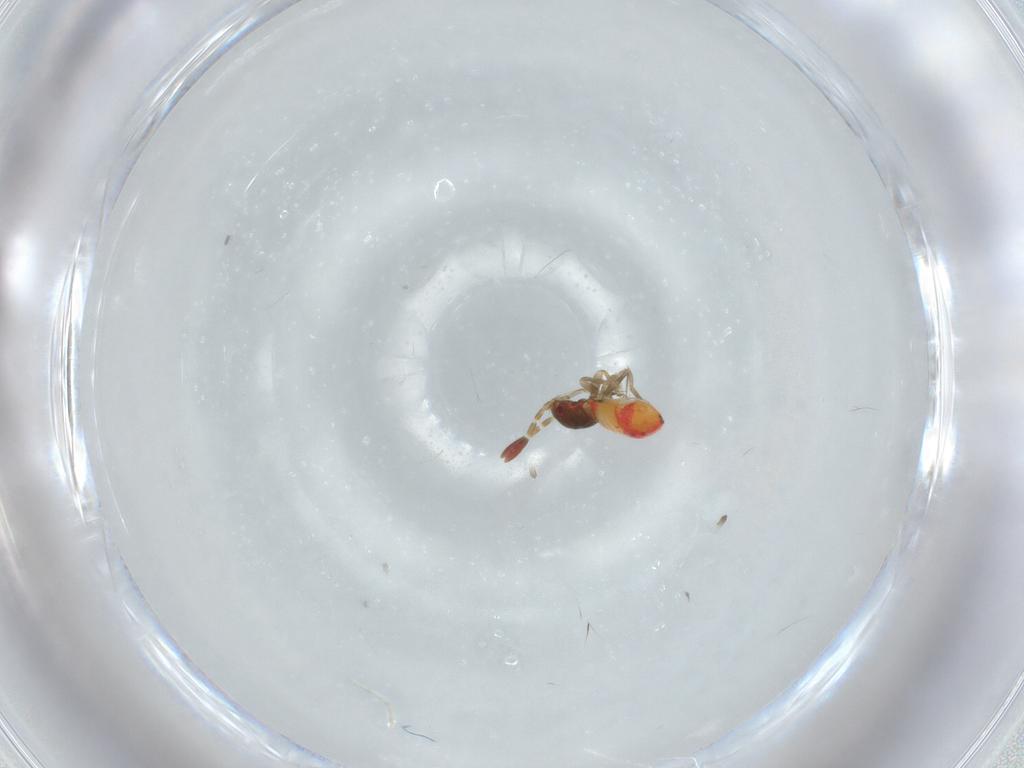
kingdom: Animalia
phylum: Arthropoda
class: Insecta
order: Hemiptera
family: Rhyparochromidae
